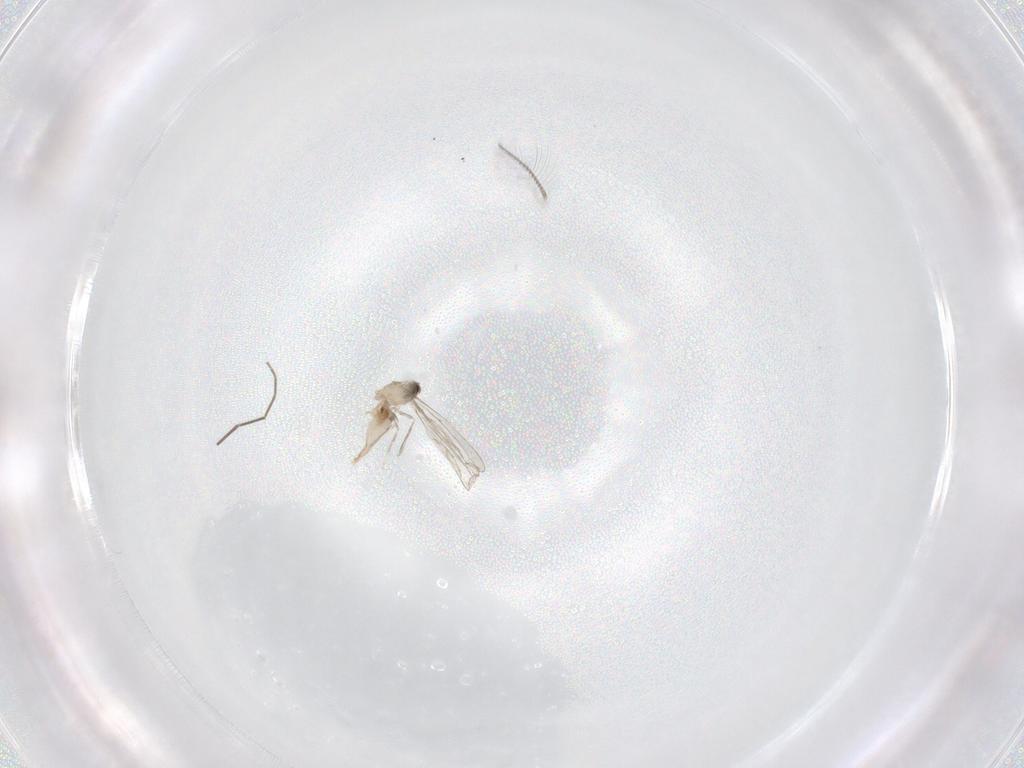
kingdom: Animalia
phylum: Arthropoda
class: Insecta
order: Diptera
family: Chironomidae
